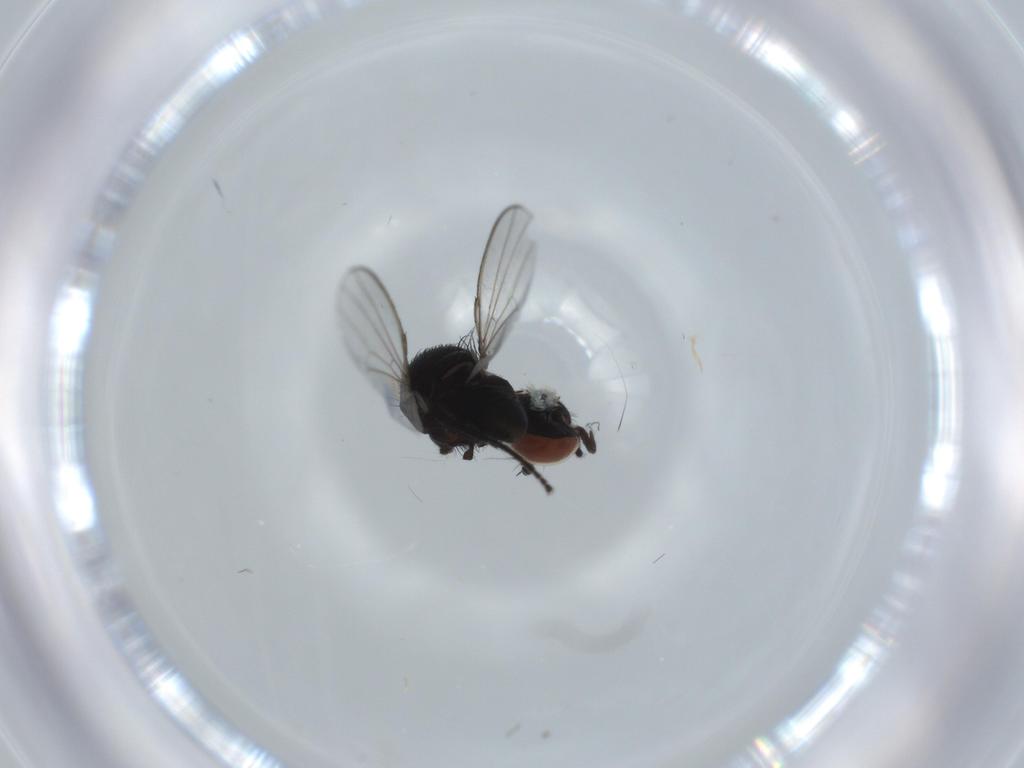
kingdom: Animalia
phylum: Arthropoda
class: Insecta
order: Diptera
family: Milichiidae
